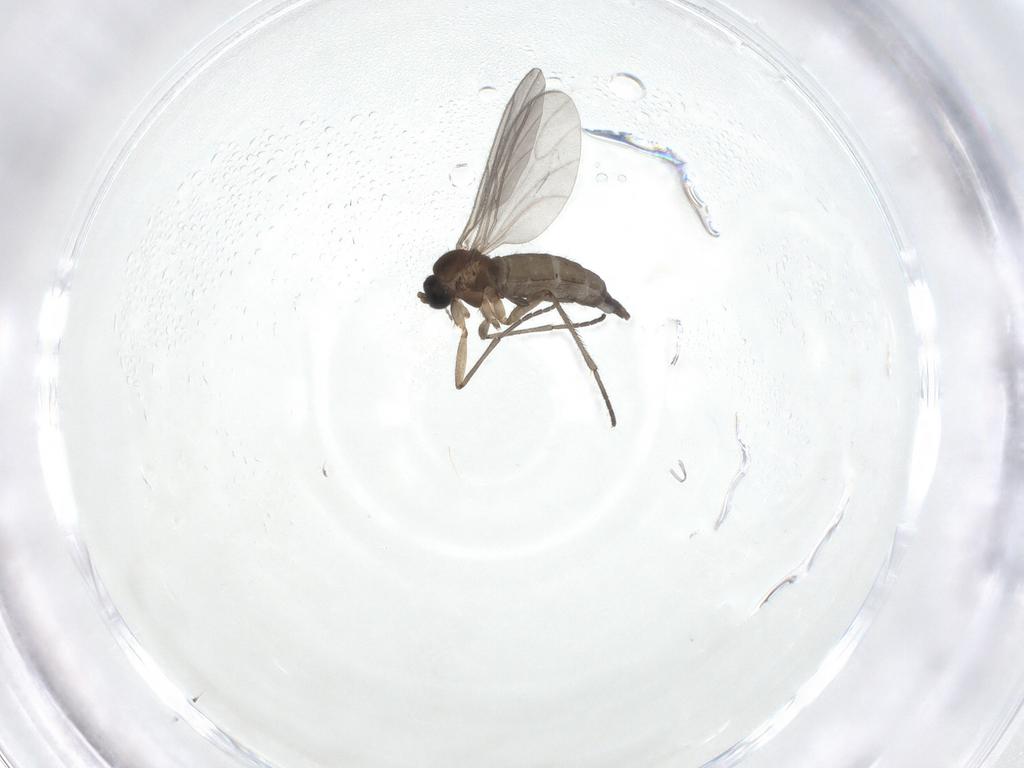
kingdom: Animalia
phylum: Arthropoda
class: Insecta
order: Diptera
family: Sciaridae
